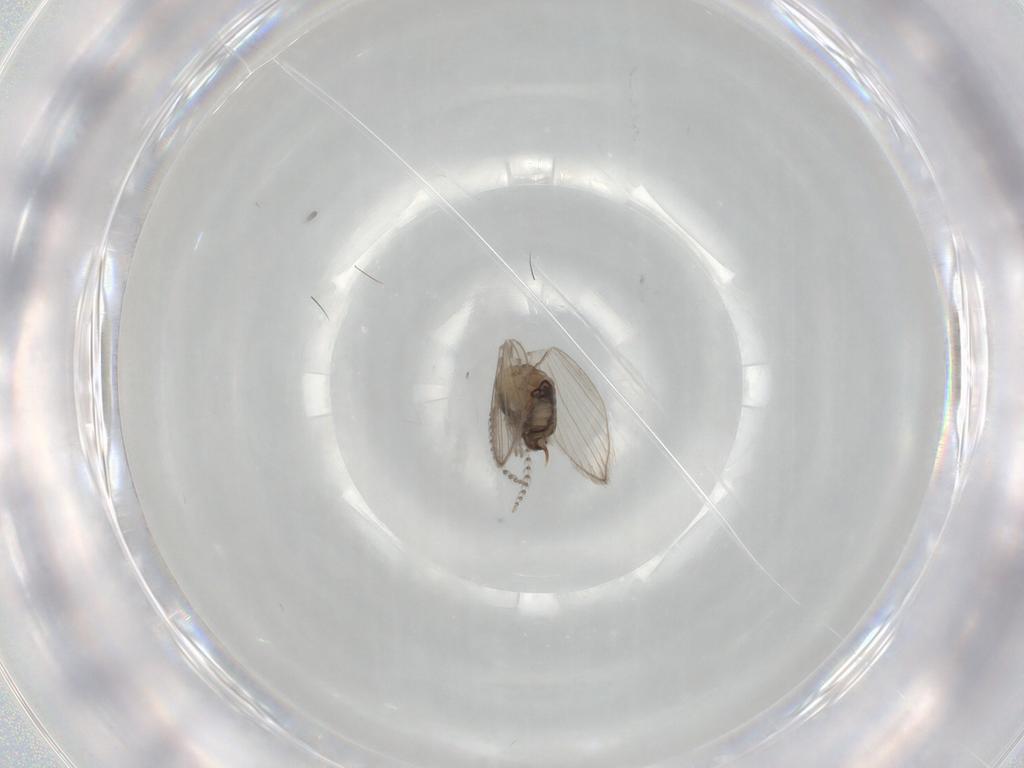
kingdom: Animalia
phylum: Arthropoda
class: Insecta
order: Diptera
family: Psychodidae
